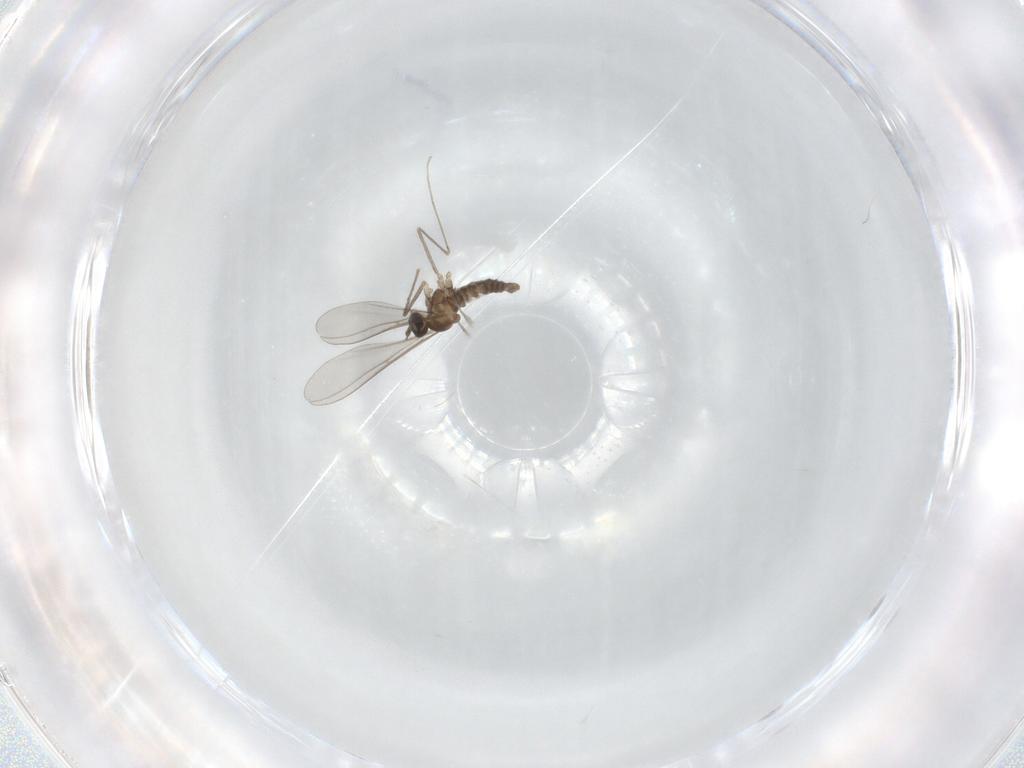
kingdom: Animalia
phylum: Arthropoda
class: Insecta
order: Diptera
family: Cecidomyiidae
